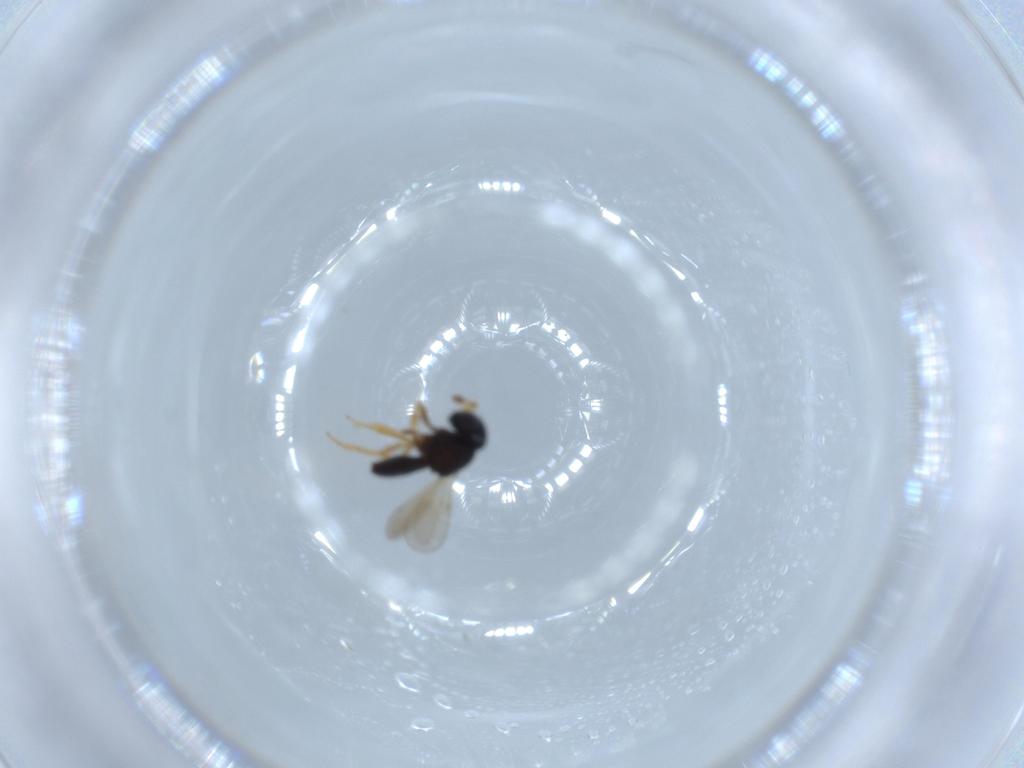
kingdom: Animalia
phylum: Arthropoda
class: Insecta
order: Hymenoptera
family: Scelionidae
